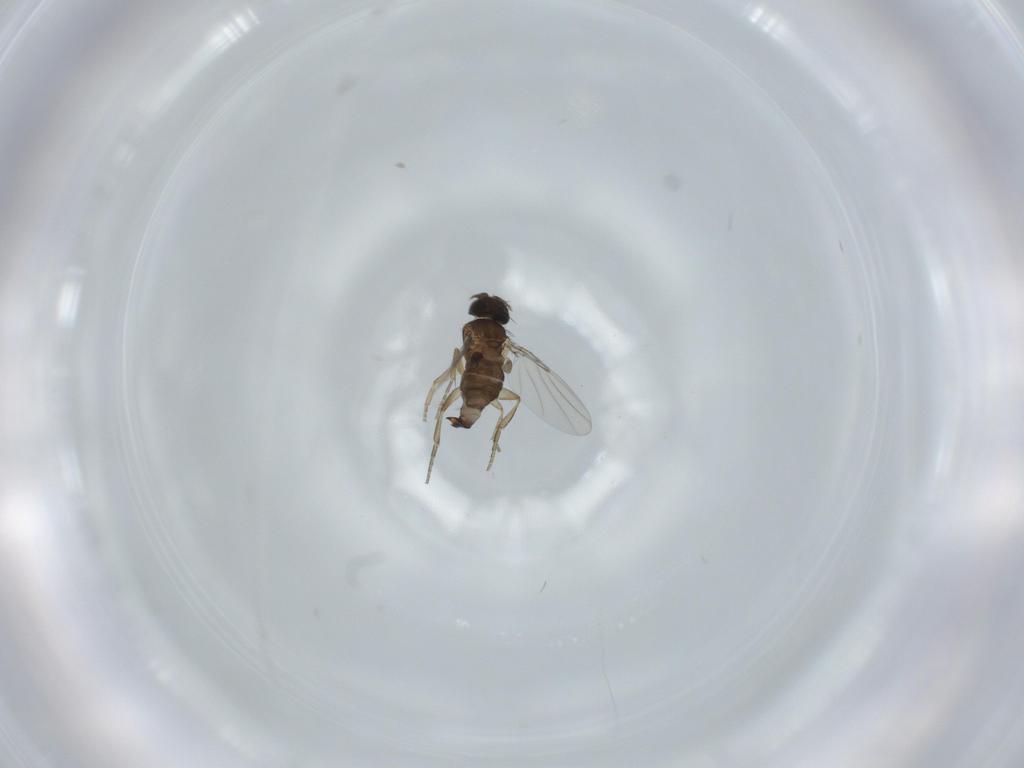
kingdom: Animalia
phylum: Arthropoda
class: Insecta
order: Diptera
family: Phoridae
